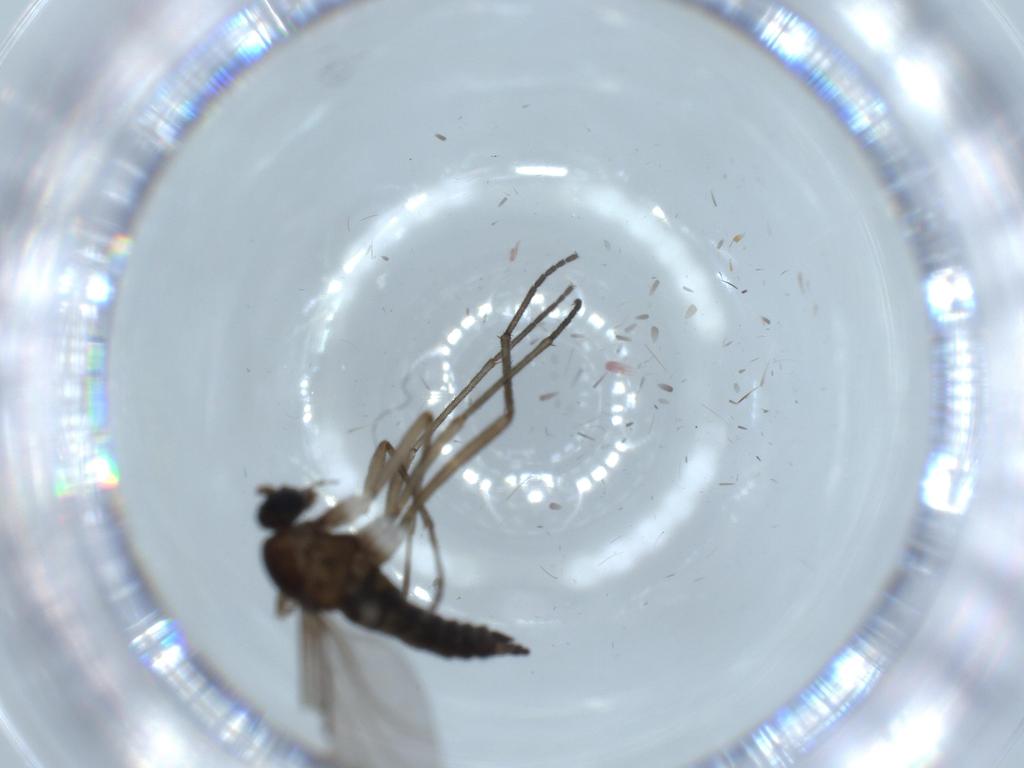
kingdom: Animalia
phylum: Arthropoda
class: Insecta
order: Diptera
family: Sciaridae
